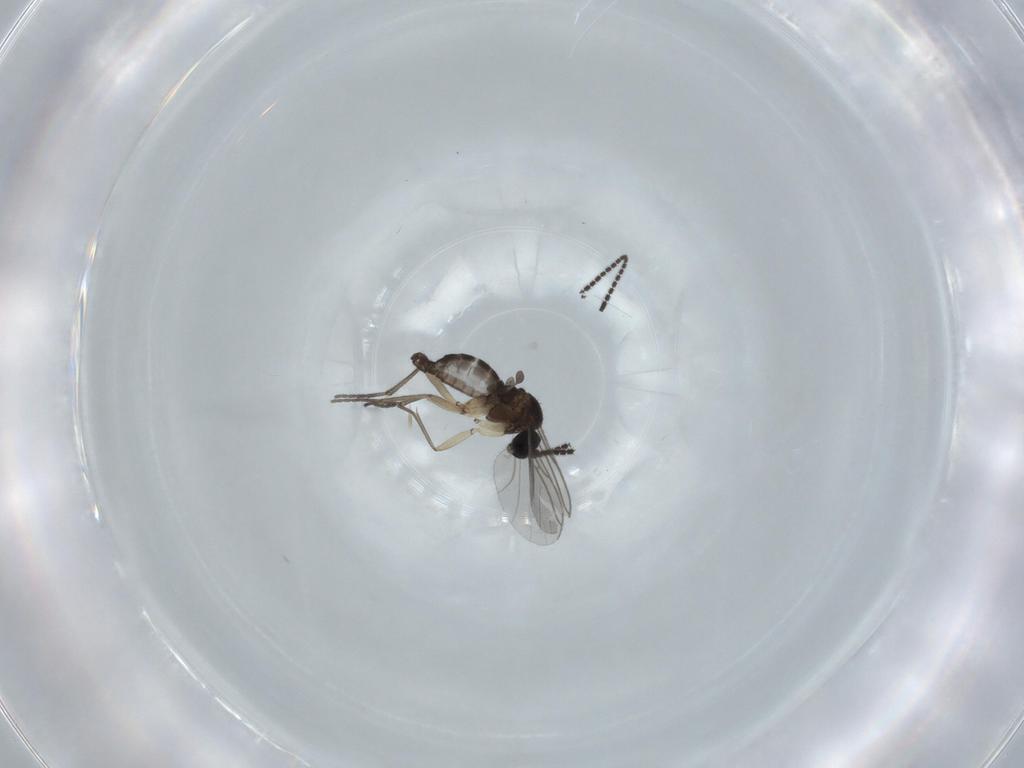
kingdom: Animalia
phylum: Arthropoda
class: Insecta
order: Diptera
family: Sciaridae
